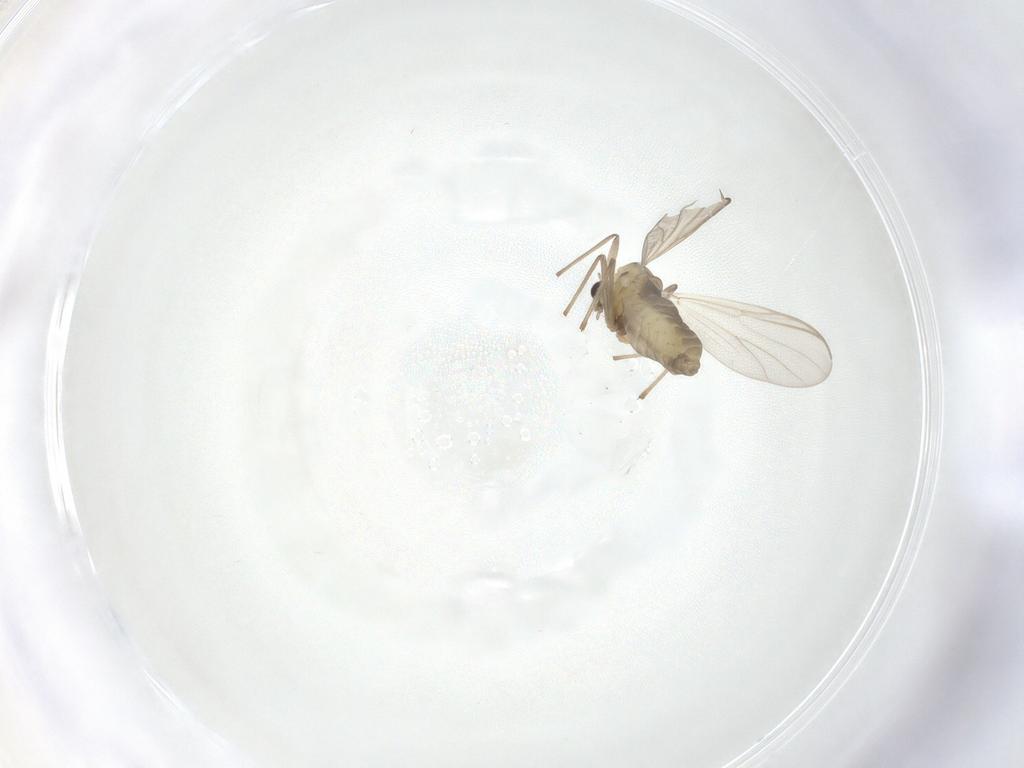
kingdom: Animalia
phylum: Arthropoda
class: Insecta
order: Diptera
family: Chironomidae
